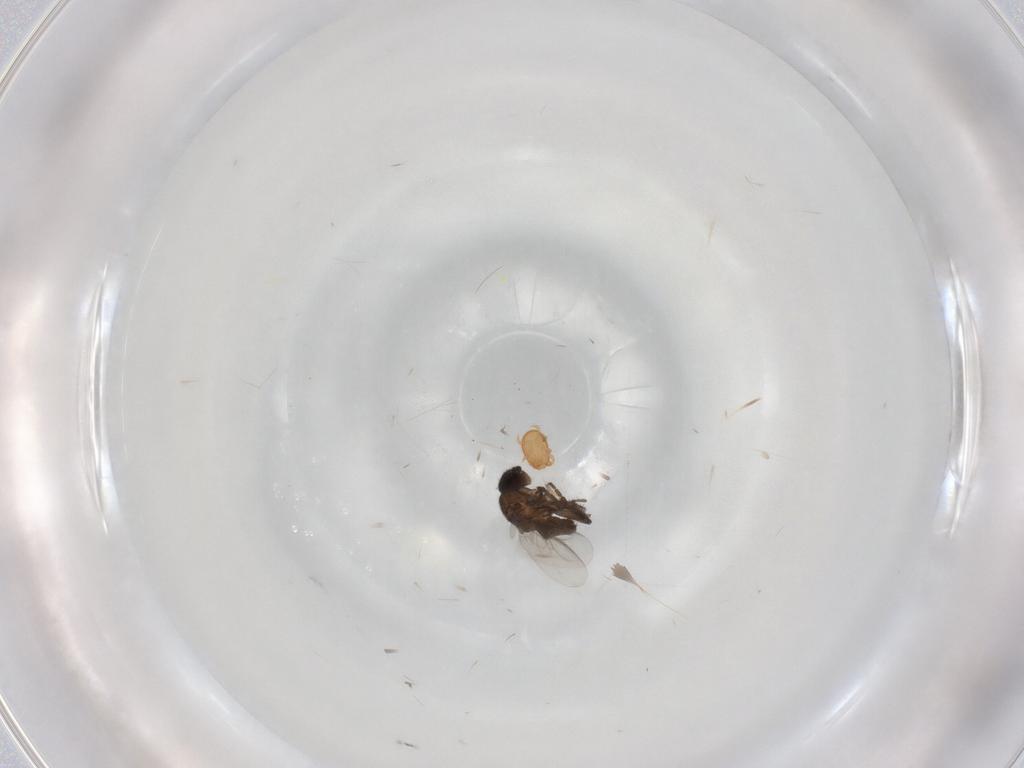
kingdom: Animalia
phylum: Arthropoda
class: Insecta
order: Diptera
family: Sphaeroceridae
